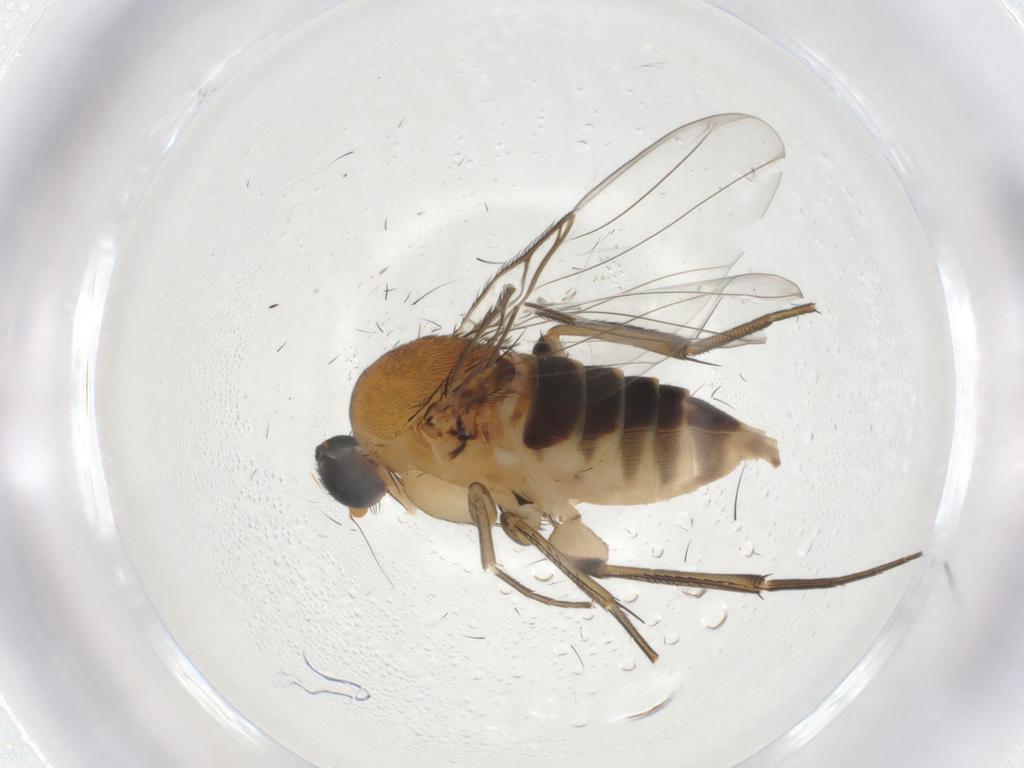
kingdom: Animalia
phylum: Arthropoda
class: Insecta
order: Diptera
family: Phoridae
